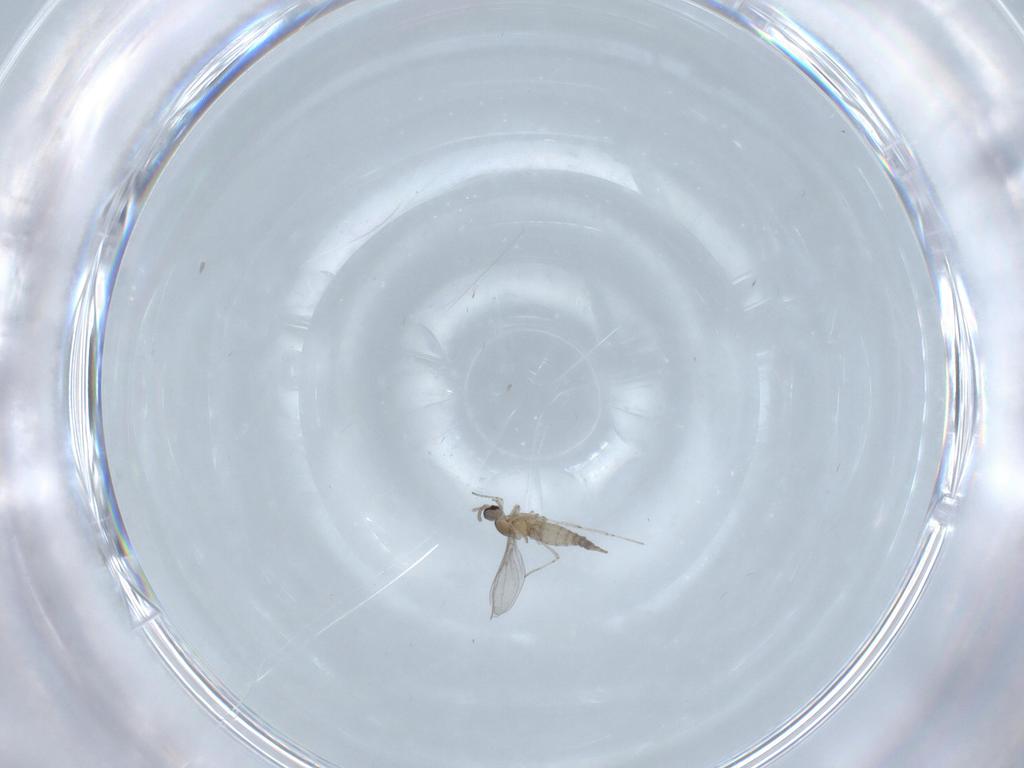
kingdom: Animalia
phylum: Arthropoda
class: Insecta
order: Diptera
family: Cecidomyiidae
